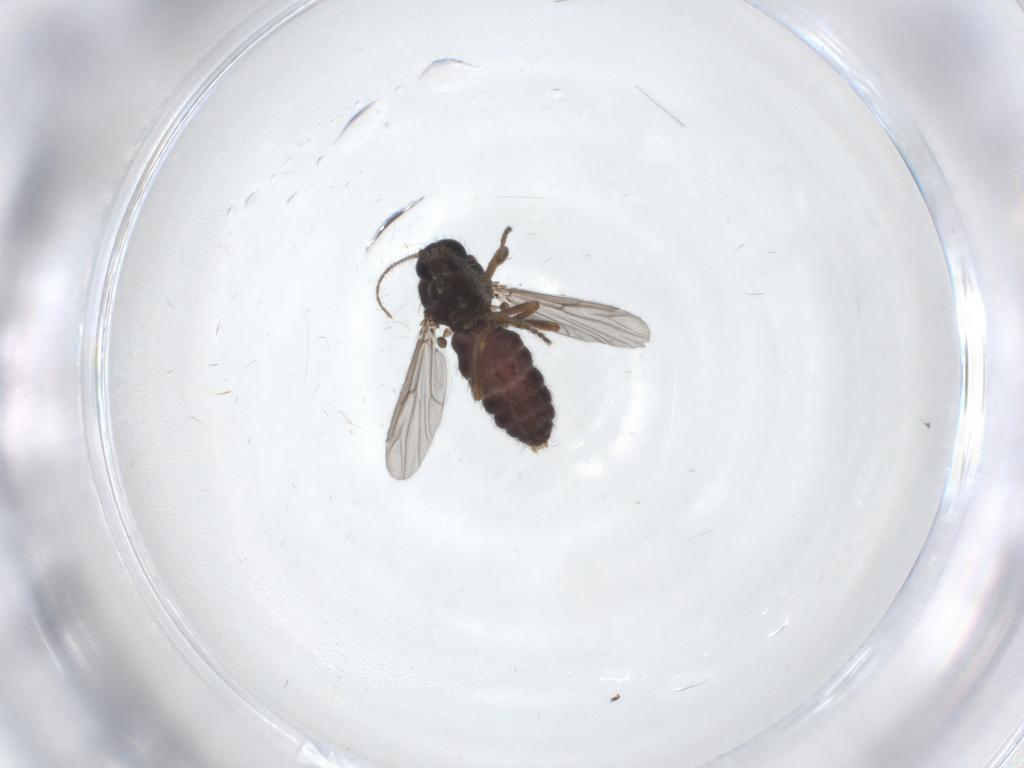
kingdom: Animalia
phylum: Arthropoda
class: Insecta
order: Diptera
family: Ceratopogonidae
